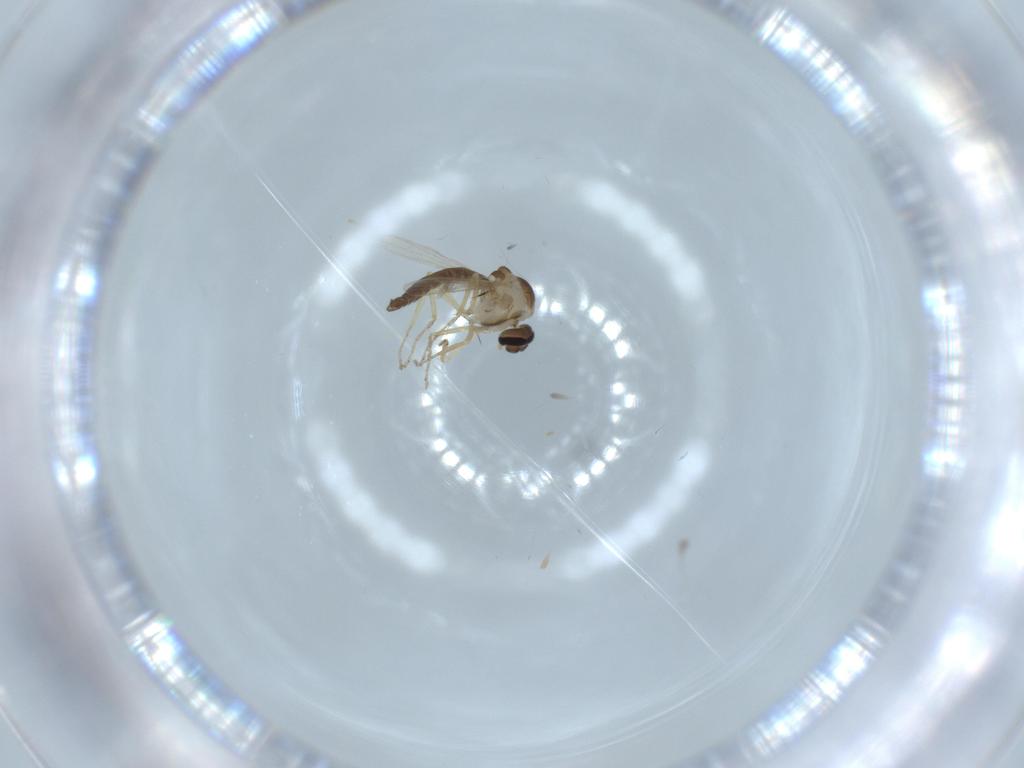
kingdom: Animalia
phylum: Arthropoda
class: Insecta
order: Diptera
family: Ceratopogonidae
